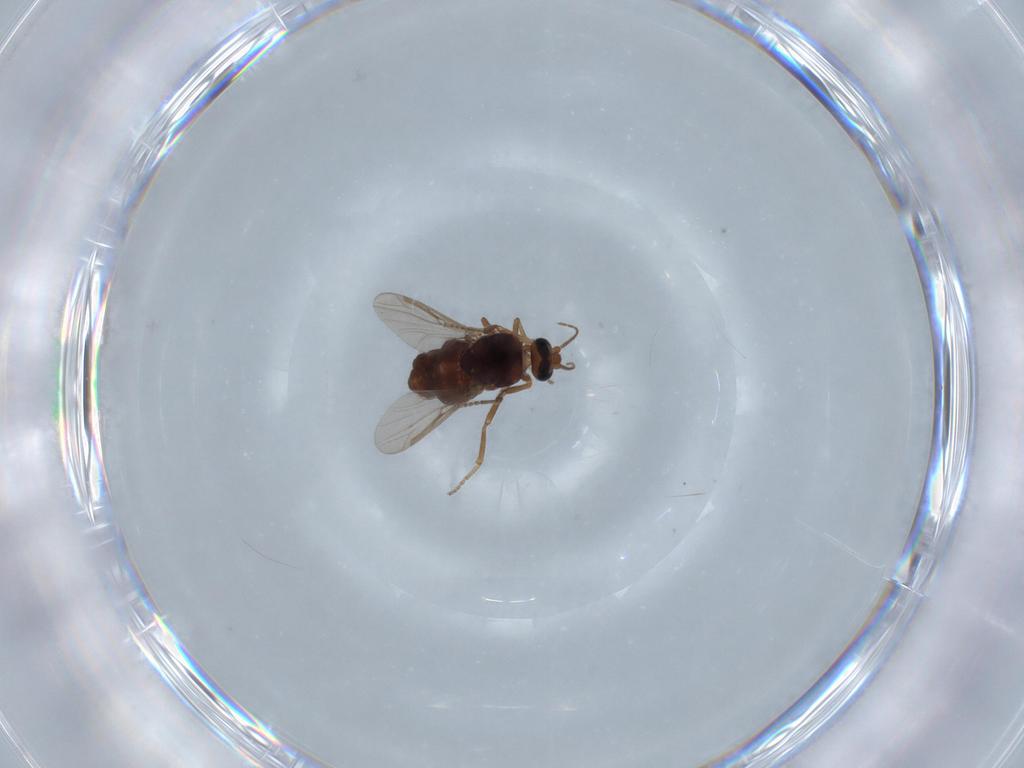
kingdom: Animalia
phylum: Arthropoda
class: Insecta
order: Diptera
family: Ceratopogonidae
